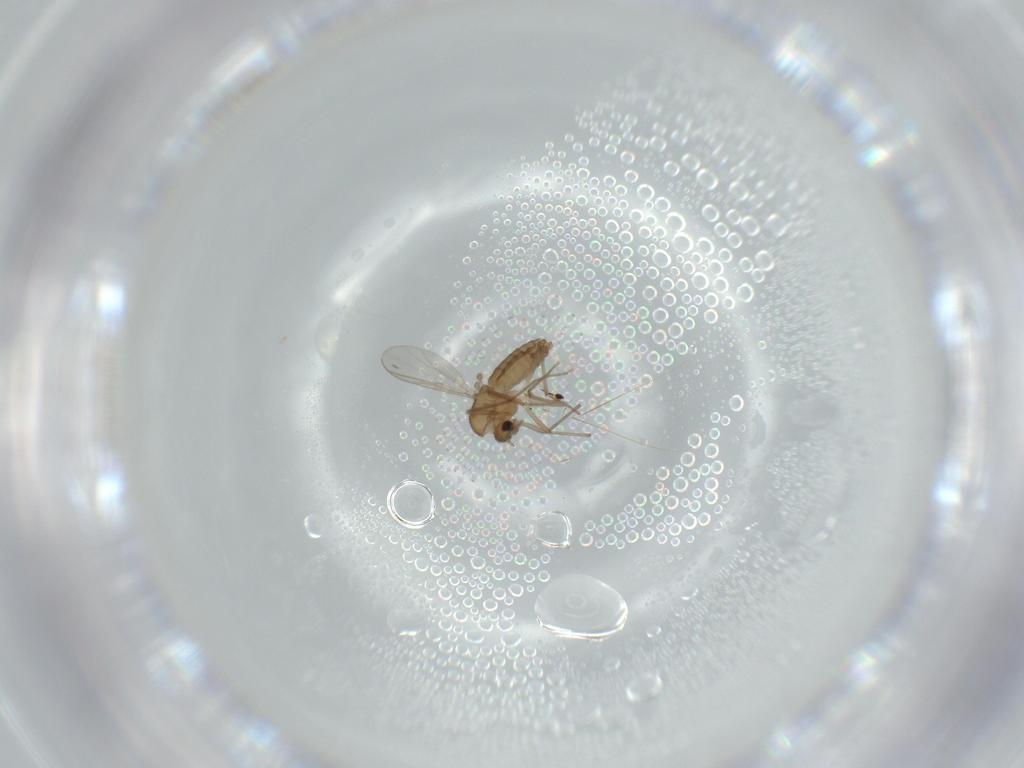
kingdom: Animalia
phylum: Arthropoda
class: Insecta
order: Diptera
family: Chironomidae
